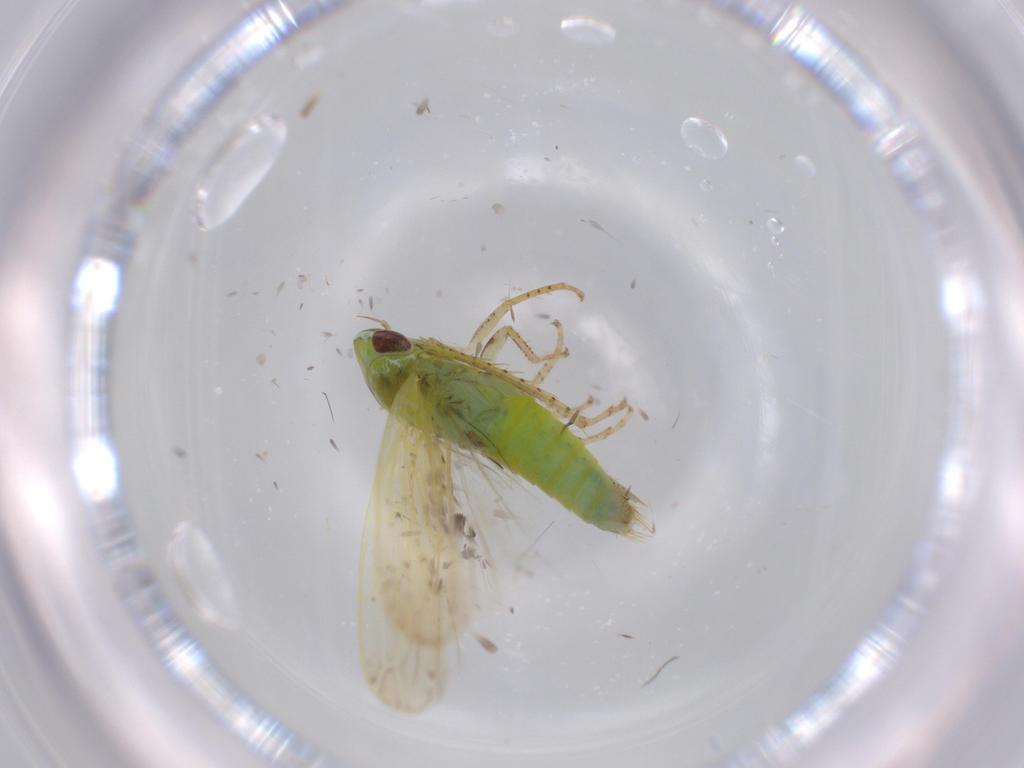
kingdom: Animalia
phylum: Arthropoda
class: Insecta
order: Hemiptera
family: Cicadellidae
